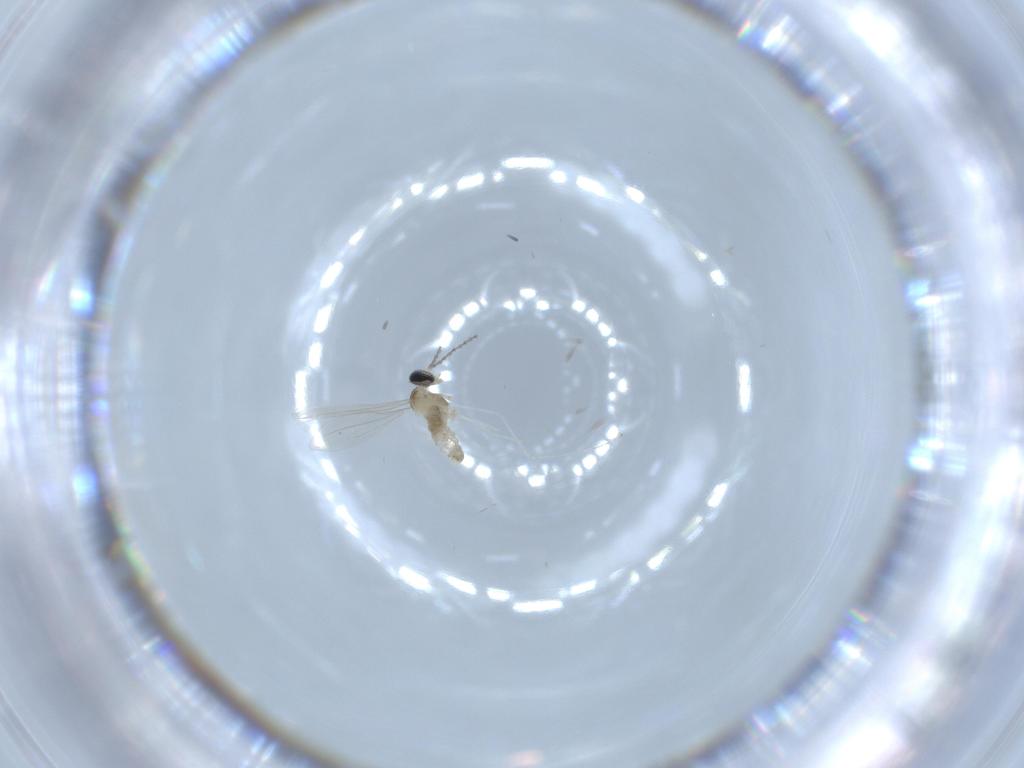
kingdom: Animalia
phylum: Arthropoda
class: Insecta
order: Diptera
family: Cecidomyiidae
